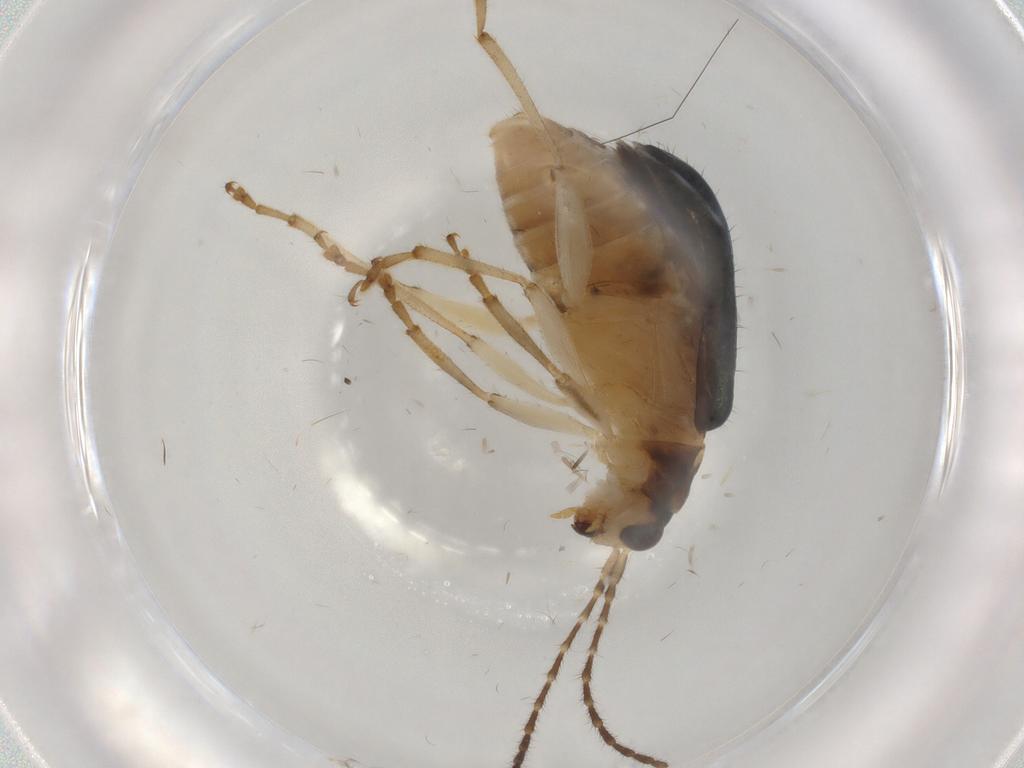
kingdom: Animalia
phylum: Arthropoda
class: Insecta
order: Coleoptera
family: Chrysomelidae
